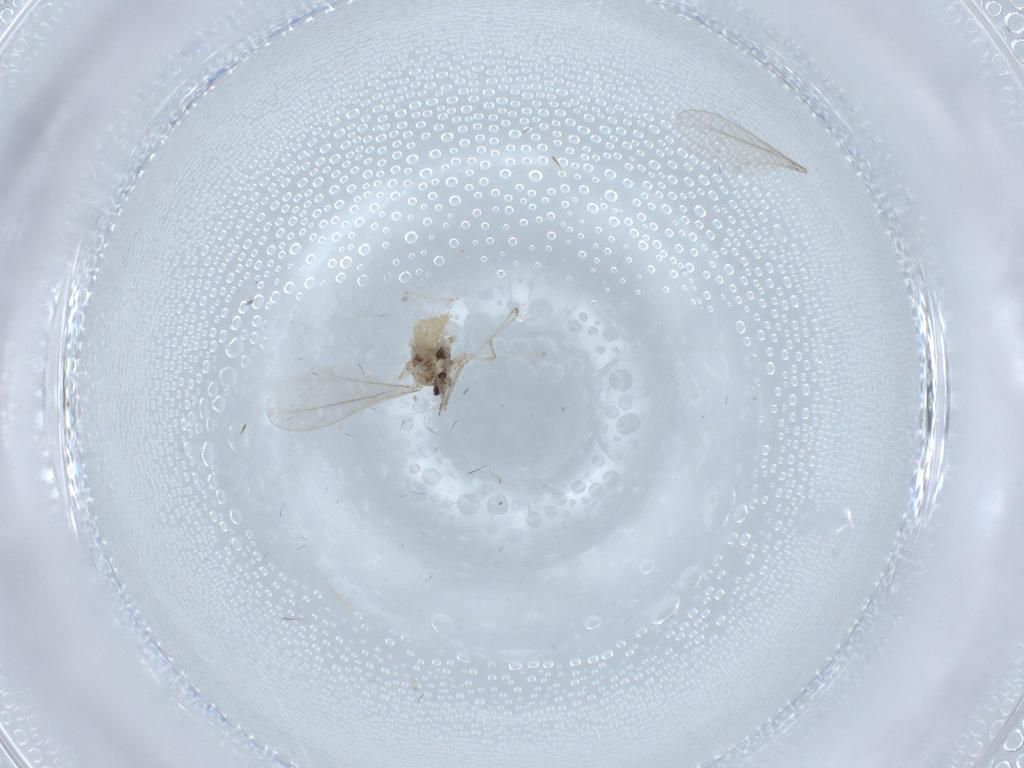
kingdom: Animalia
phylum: Arthropoda
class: Insecta
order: Diptera
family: Cecidomyiidae
